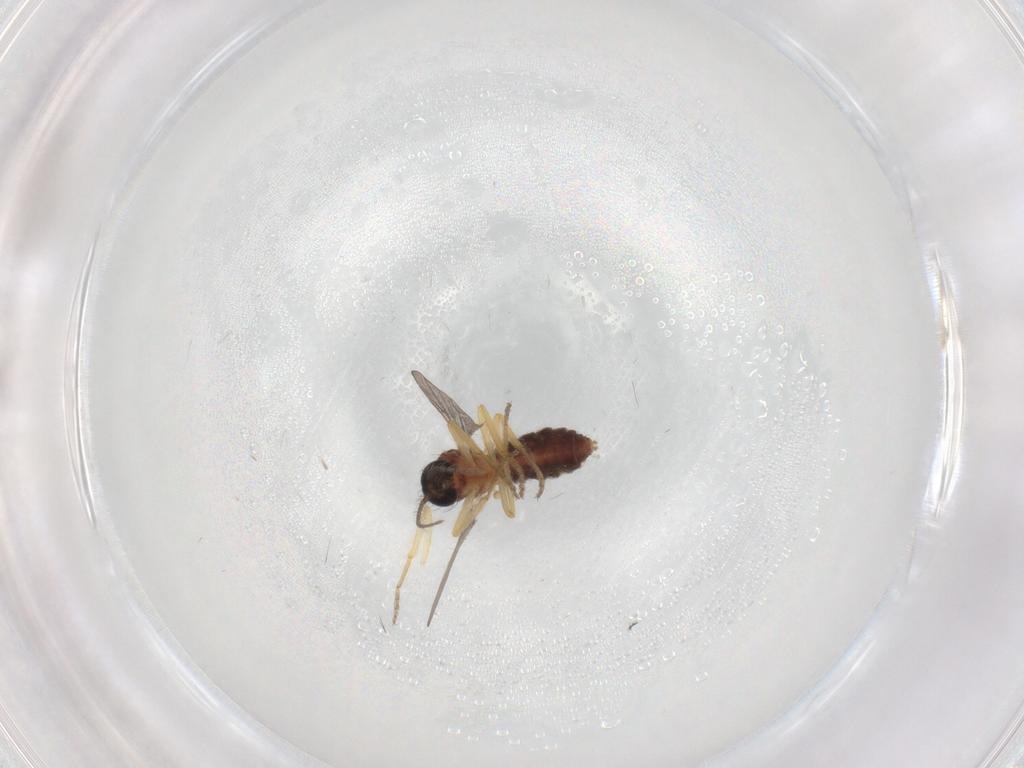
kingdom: Animalia
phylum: Arthropoda
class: Insecta
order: Diptera
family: Ceratopogonidae
